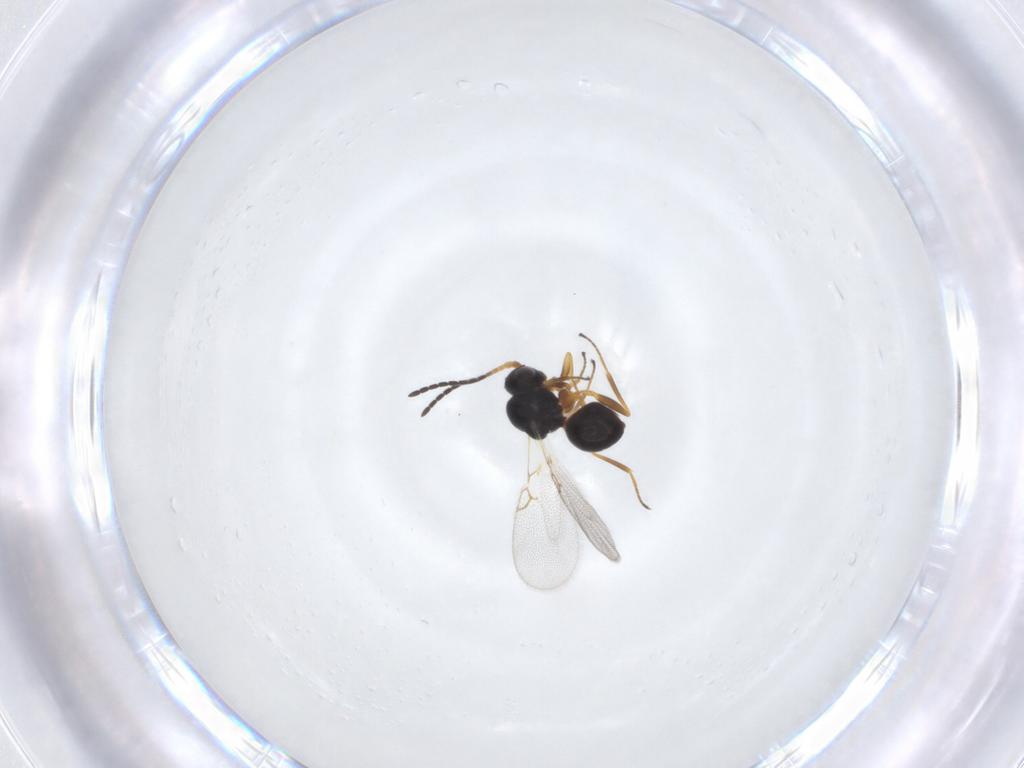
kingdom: Animalia
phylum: Arthropoda
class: Insecta
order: Hymenoptera
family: Figitidae
